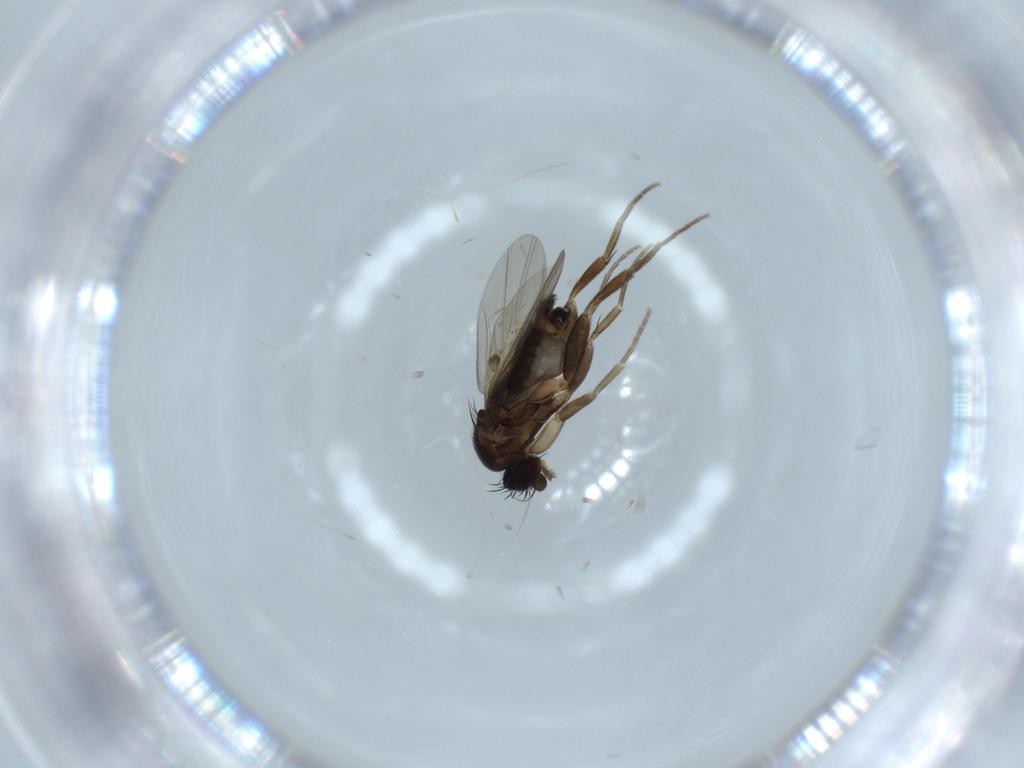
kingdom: Animalia
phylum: Arthropoda
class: Insecta
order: Diptera
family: Phoridae
